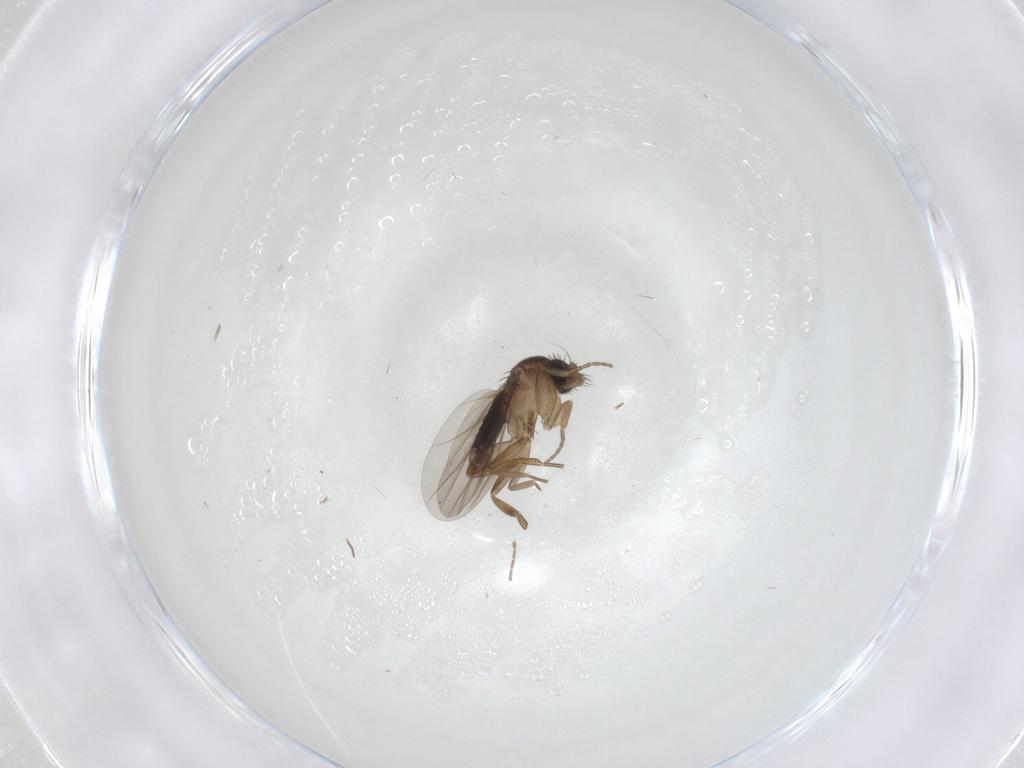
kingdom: Animalia
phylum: Arthropoda
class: Insecta
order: Diptera
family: Cecidomyiidae
